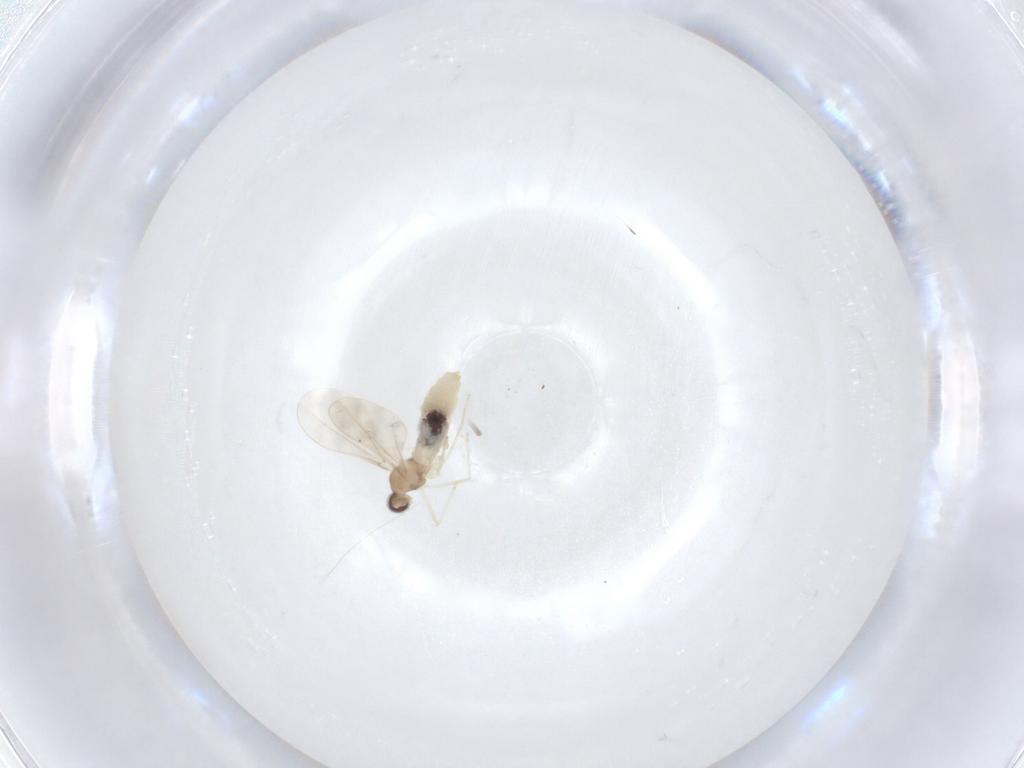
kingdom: Animalia
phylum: Arthropoda
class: Insecta
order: Diptera
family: Cecidomyiidae
